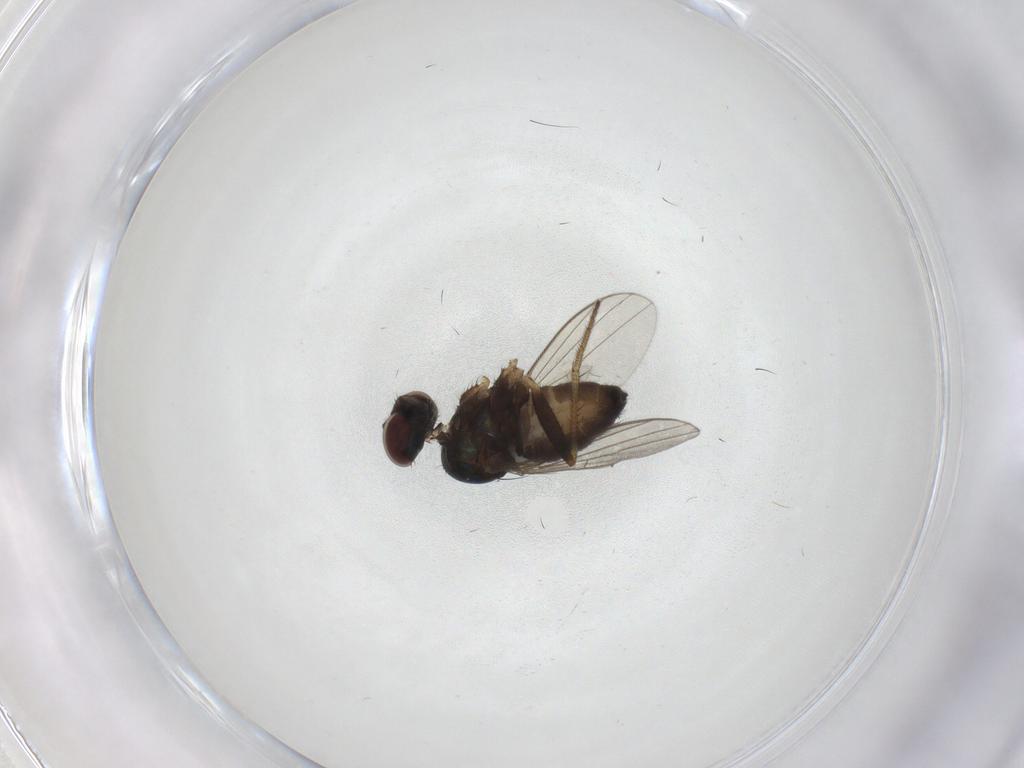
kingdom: Animalia
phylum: Arthropoda
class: Insecta
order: Diptera
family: Dolichopodidae
